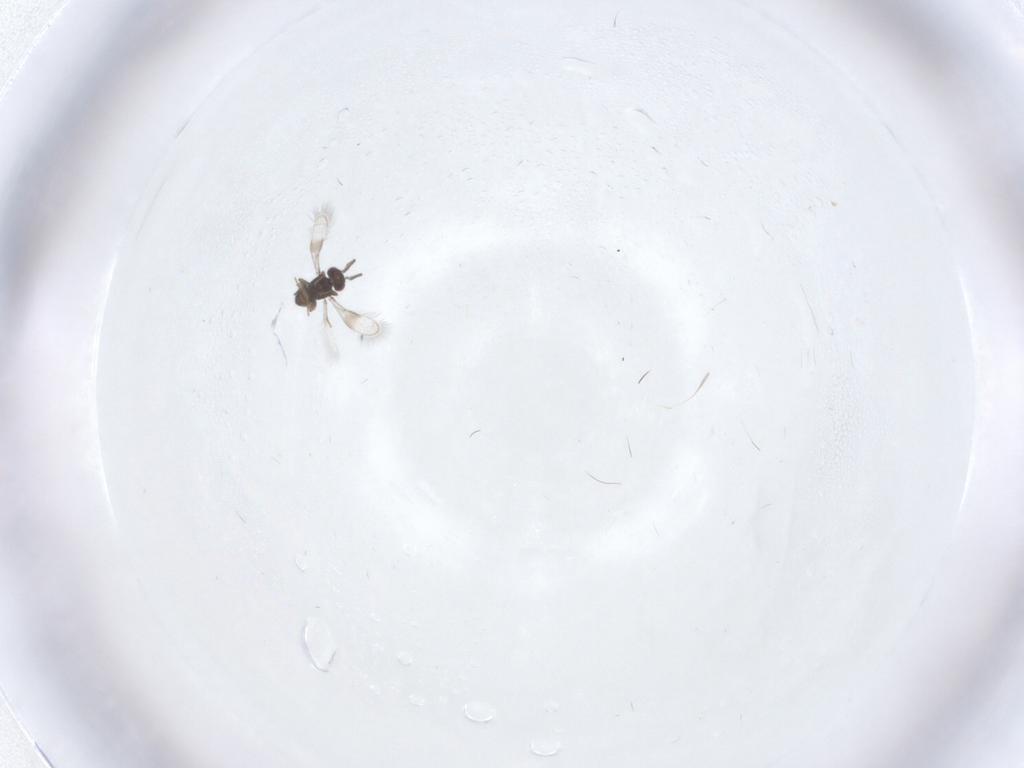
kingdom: Animalia
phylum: Arthropoda
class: Insecta
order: Hymenoptera
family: Azotidae
